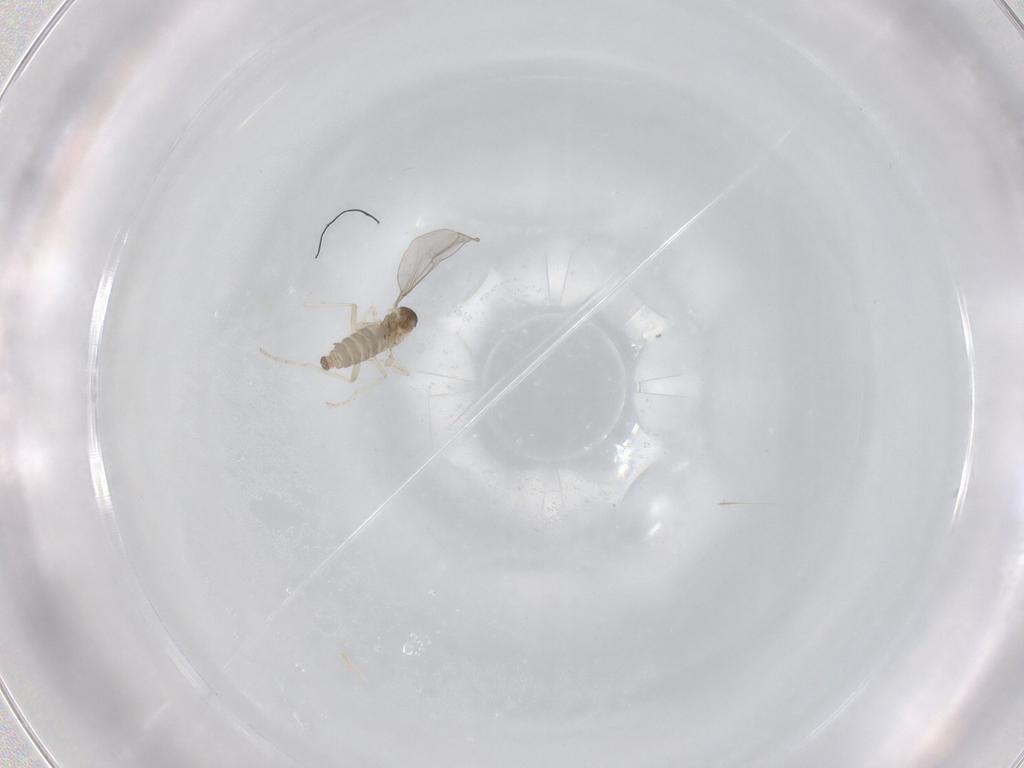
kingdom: Animalia
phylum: Arthropoda
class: Insecta
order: Diptera
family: Cecidomyiidae
